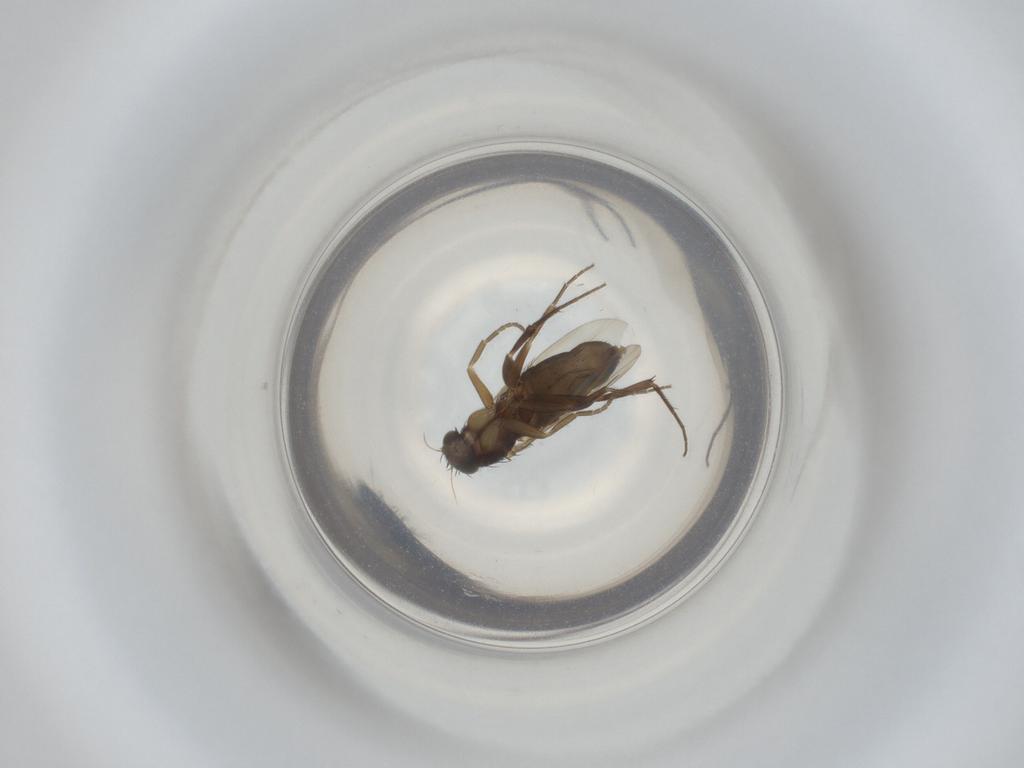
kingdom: Animalia
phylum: Arthropoda
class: Insecta
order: Diptera
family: Phoridae
